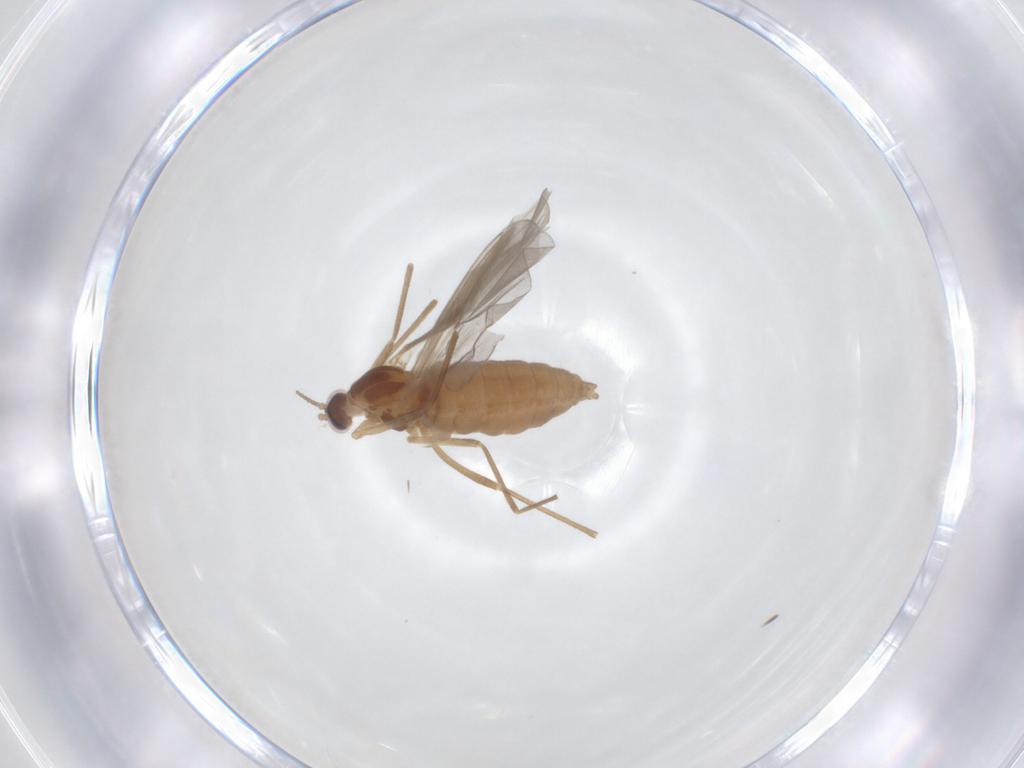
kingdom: Animalia
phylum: Arthropoda
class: Insecta
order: Diptera
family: Cecidomyiidae
